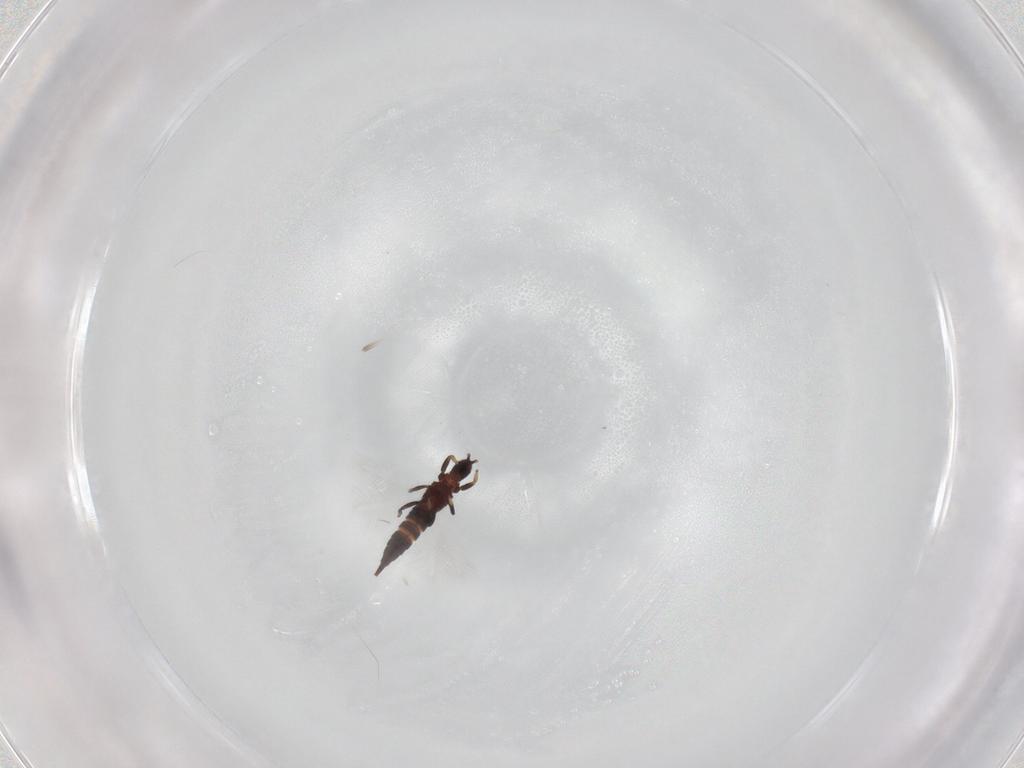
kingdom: Animalia
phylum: Arthropoda
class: Insecta
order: Thysanoptera
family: Phlaeothripidae
